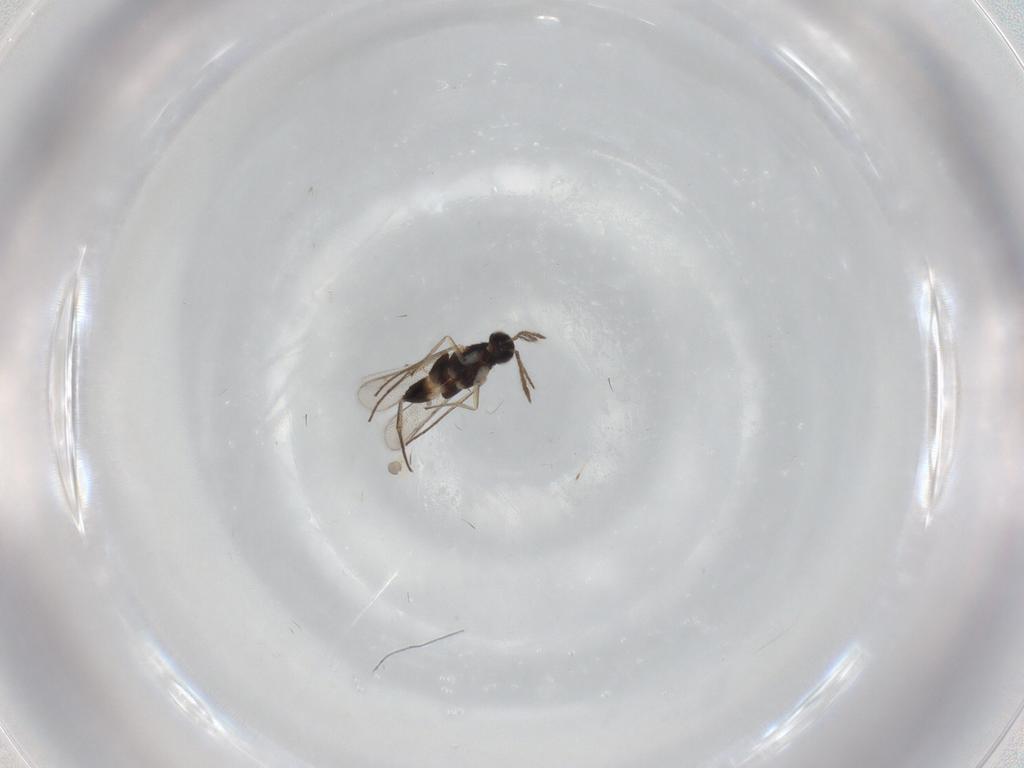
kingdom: Animalia
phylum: Arthropoda
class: Insecta
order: Hymenoptera
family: Eulophidae
